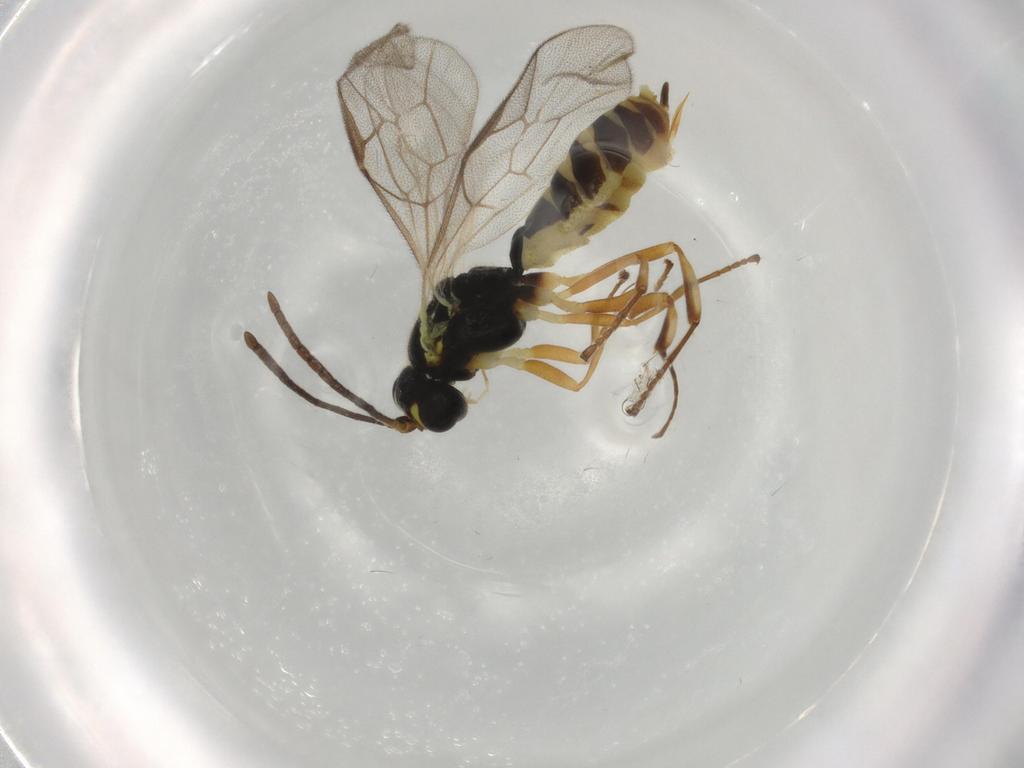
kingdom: Animalia
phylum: Arthropoda
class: Insecta
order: Hymenoptera
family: Ichneumonidae
